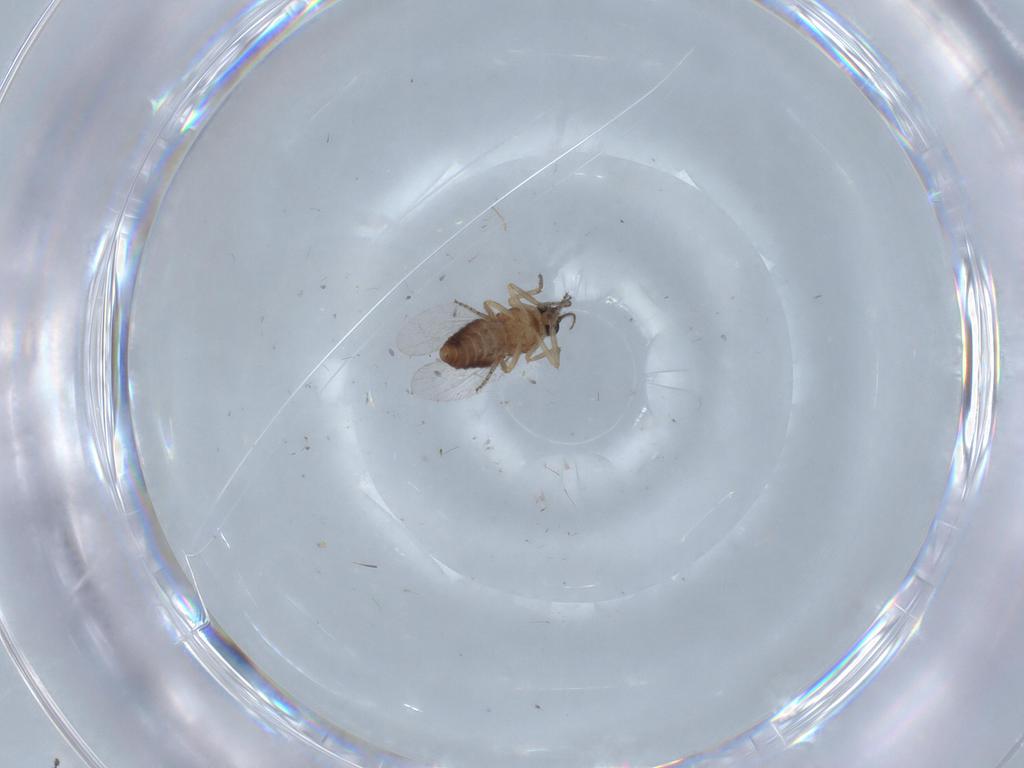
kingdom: Animalia
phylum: Arthropoda
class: Insecta
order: Diptera
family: Ceratopogonidae
